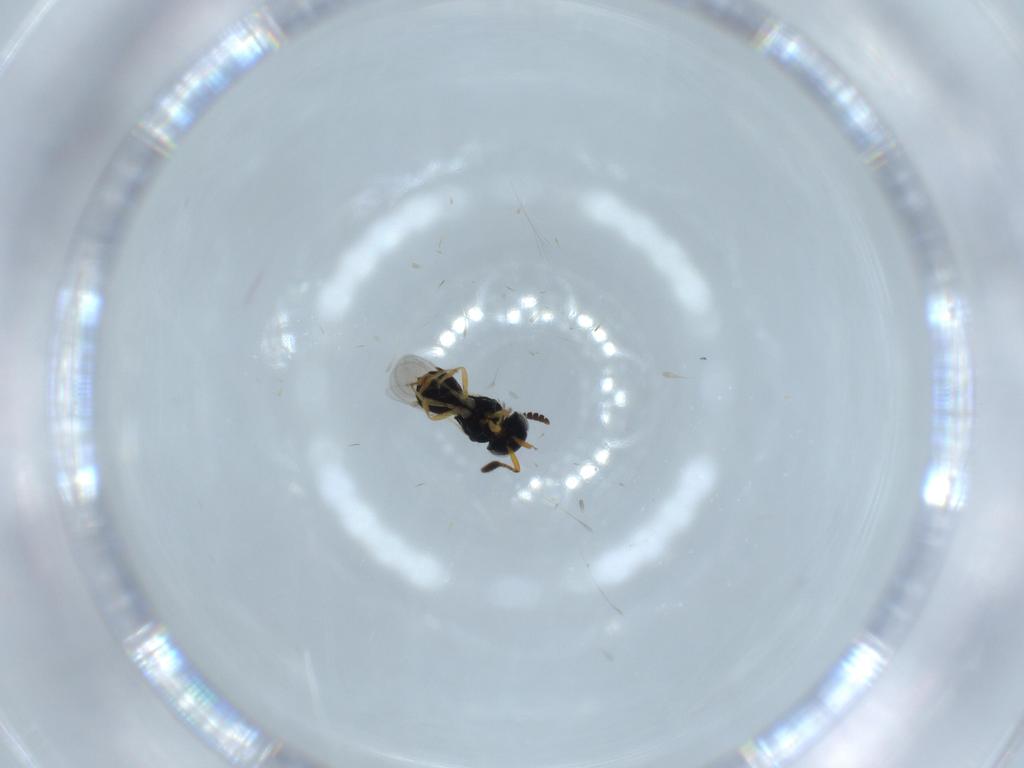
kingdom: Animalia
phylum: Arthropoda
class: Insecta
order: Hymenoptera
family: Scelionidae
